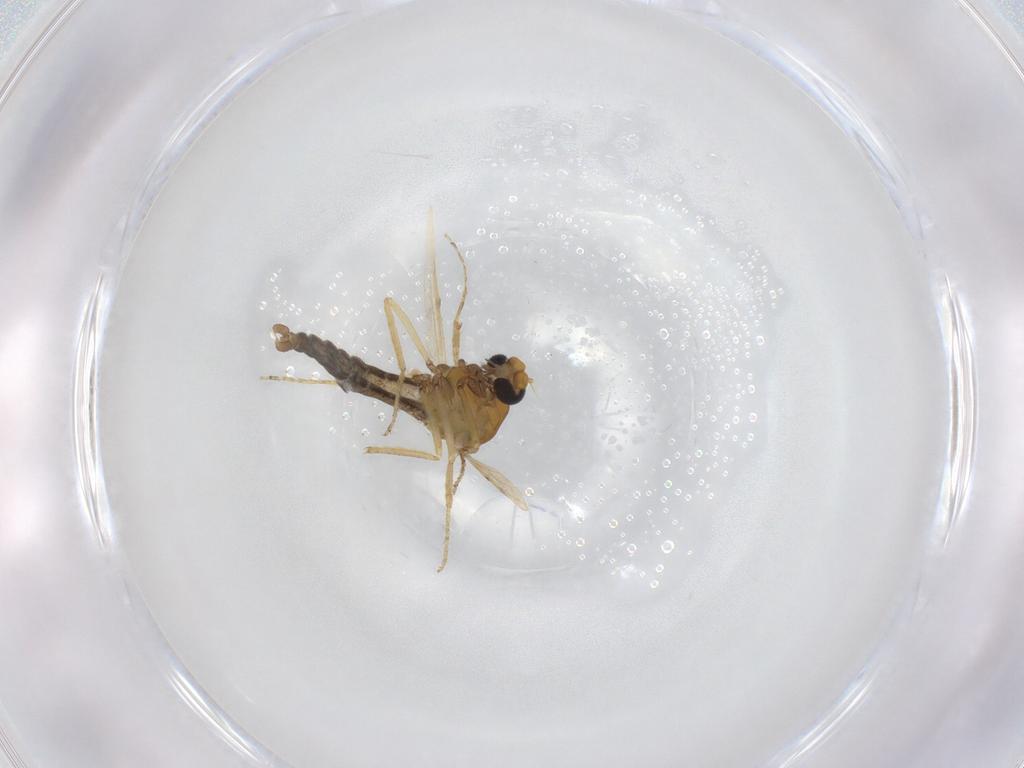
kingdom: Animalia
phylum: Arthropoda
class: Insecta
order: Diptera
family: Ceratopogonidae
